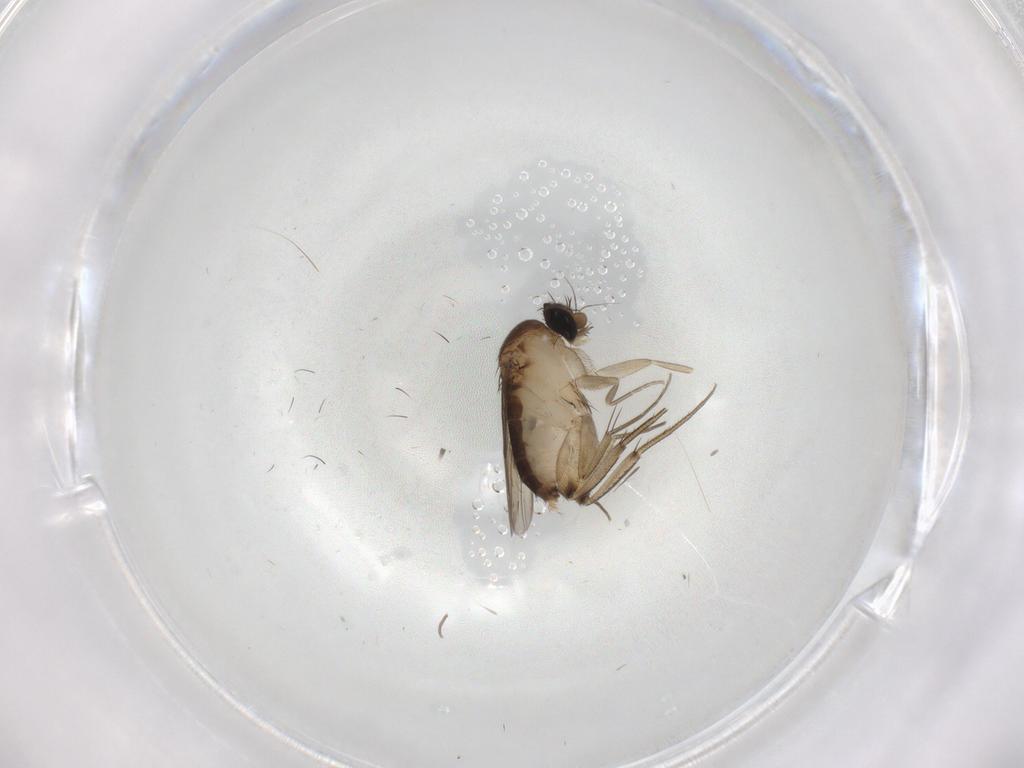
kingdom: Animalia
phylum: Arthropoda
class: Insecta
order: Diptera
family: Phoridae
